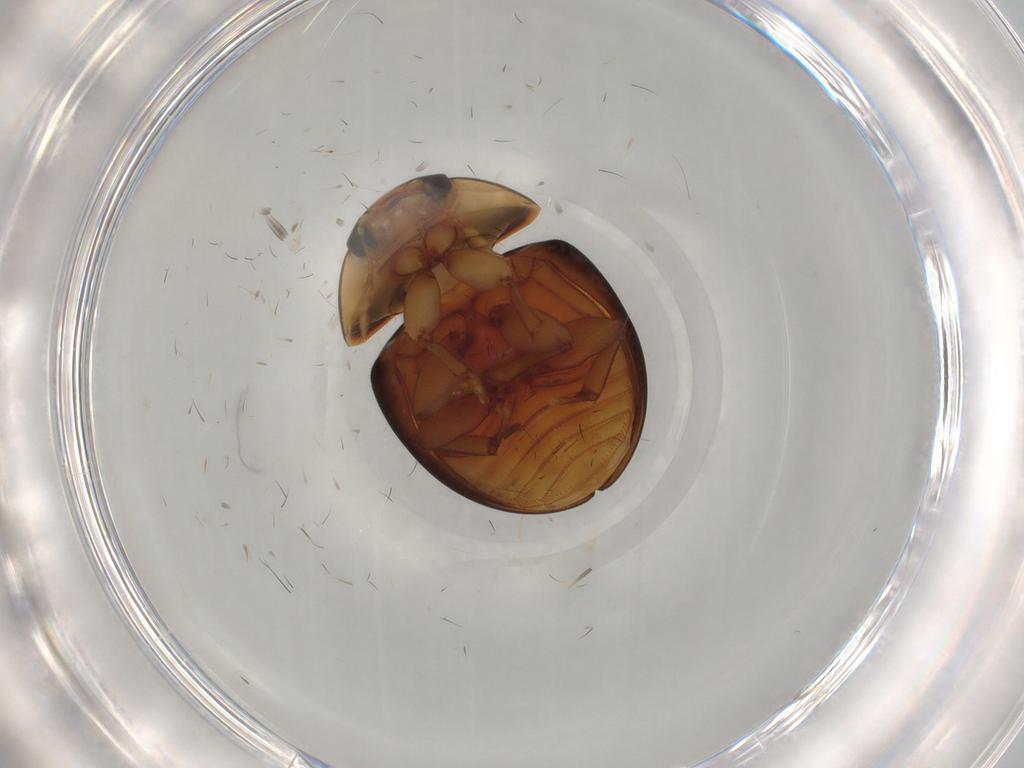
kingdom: Animalia
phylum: Arthropoda
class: Insecta
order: Coleoptera
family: Phalacridae
